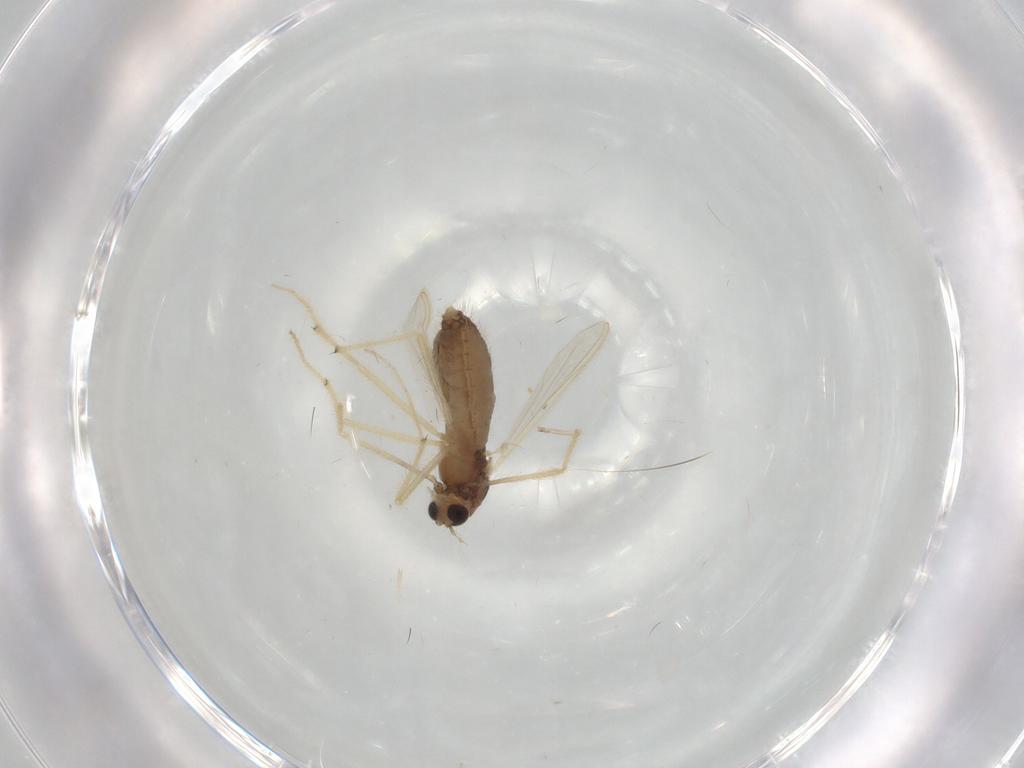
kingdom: Animalia
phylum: Arthropoda
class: Insecta
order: Diptera
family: Chironomidae
